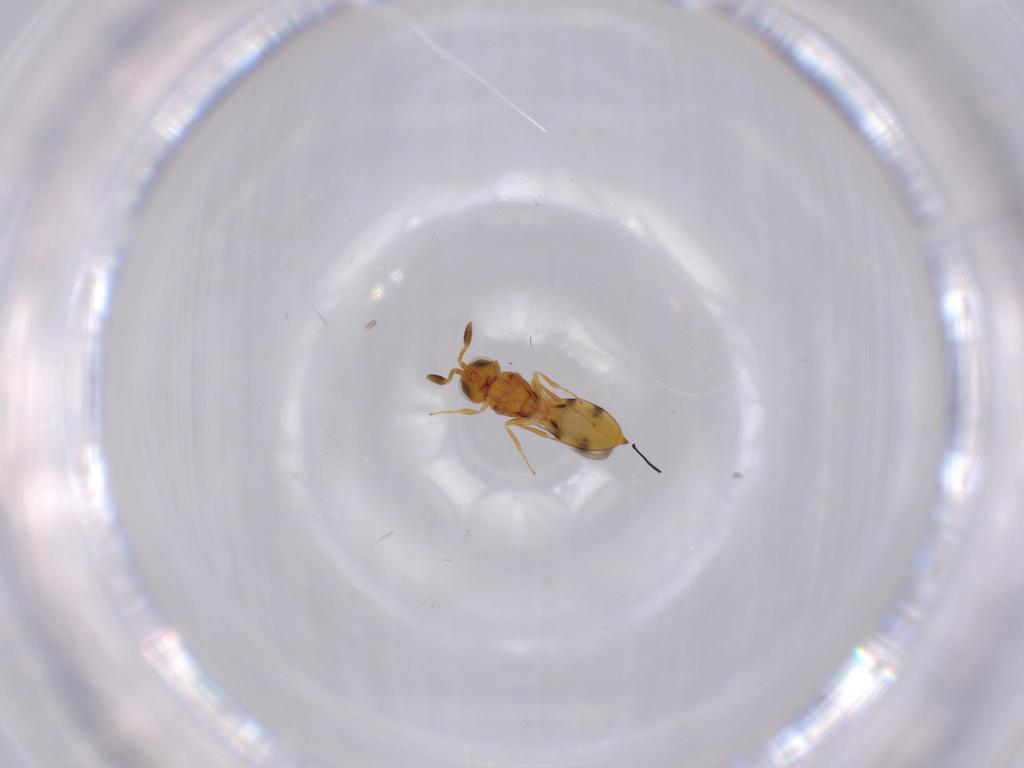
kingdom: Animalia
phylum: Arthropoda
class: Insecta
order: Hymenoptera
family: Scelionidae
